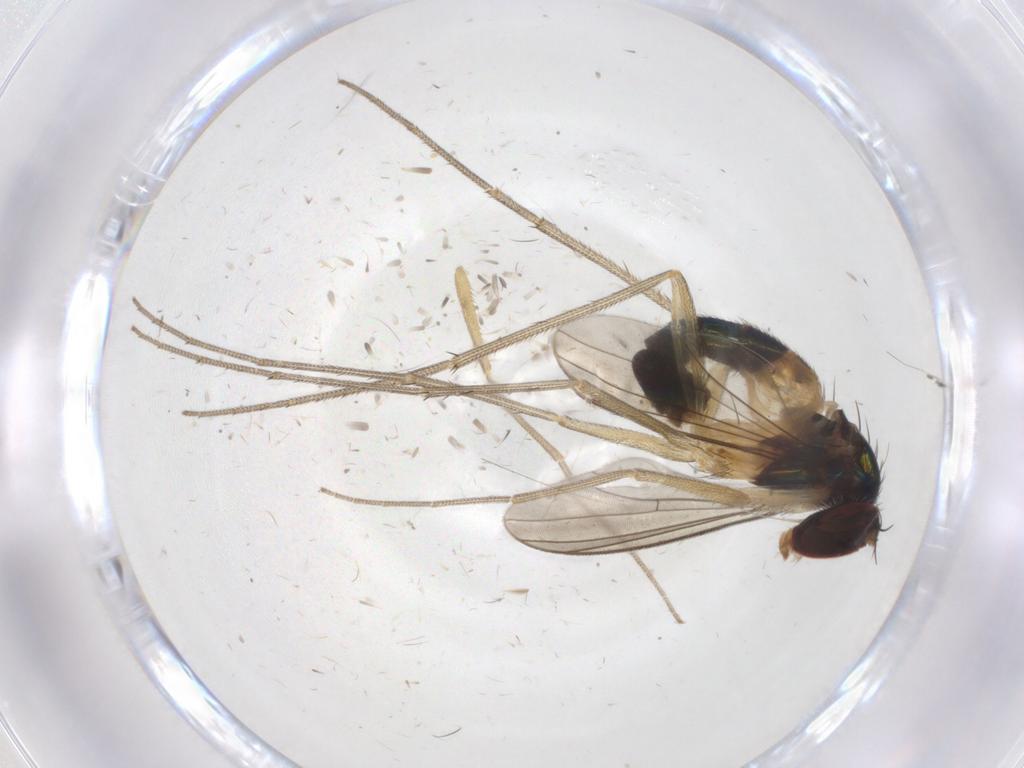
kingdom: Animalia
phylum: Arthropoda
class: Insecta
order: Diptera
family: Dolichopodidae
